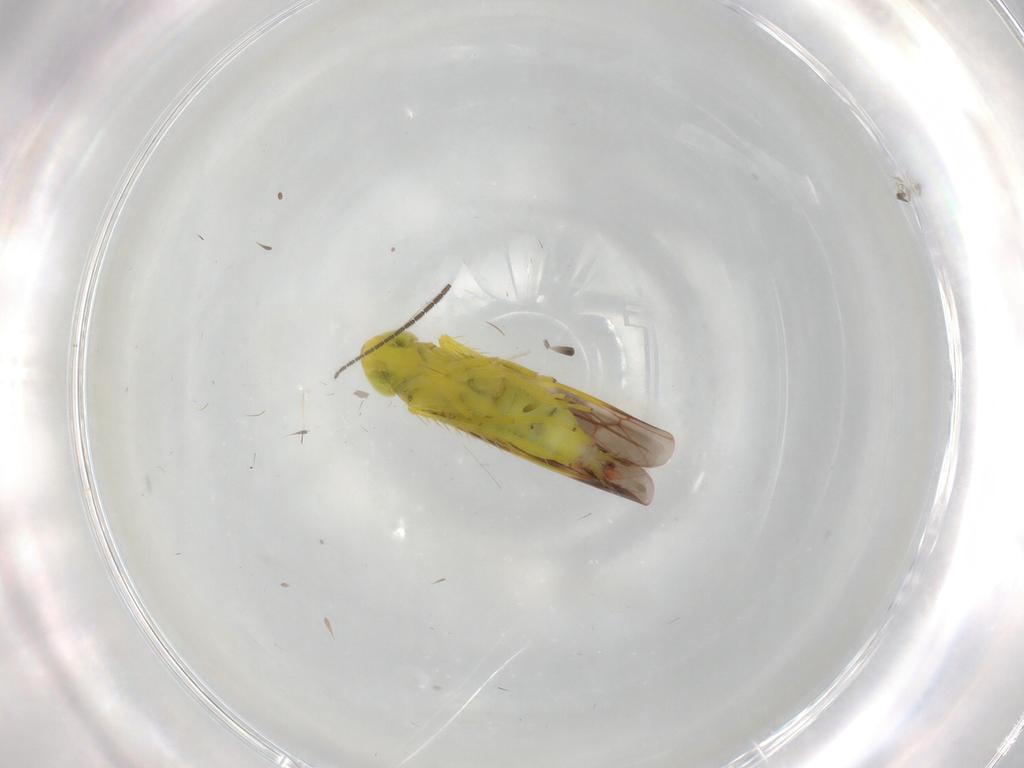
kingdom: Animalia
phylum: Arthropoda
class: Insecta
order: Hemiptera
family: Cicadellidae
